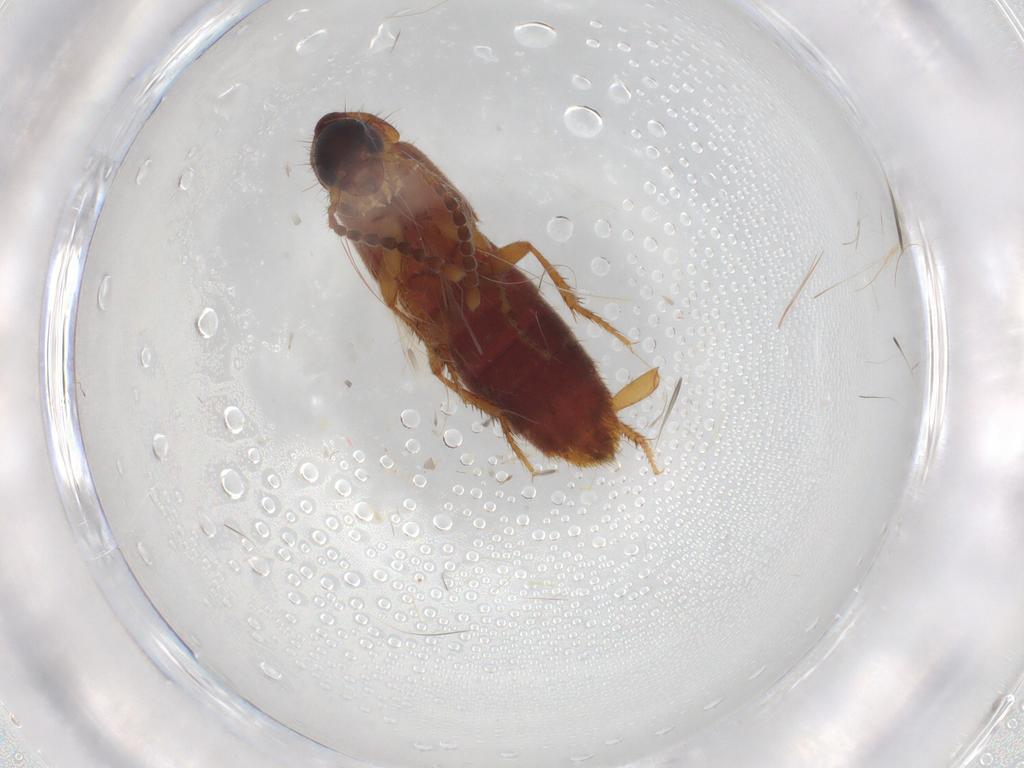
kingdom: Animalia
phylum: Arthropoda
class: Insecta
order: Coleoptera
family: Staphylinidae
